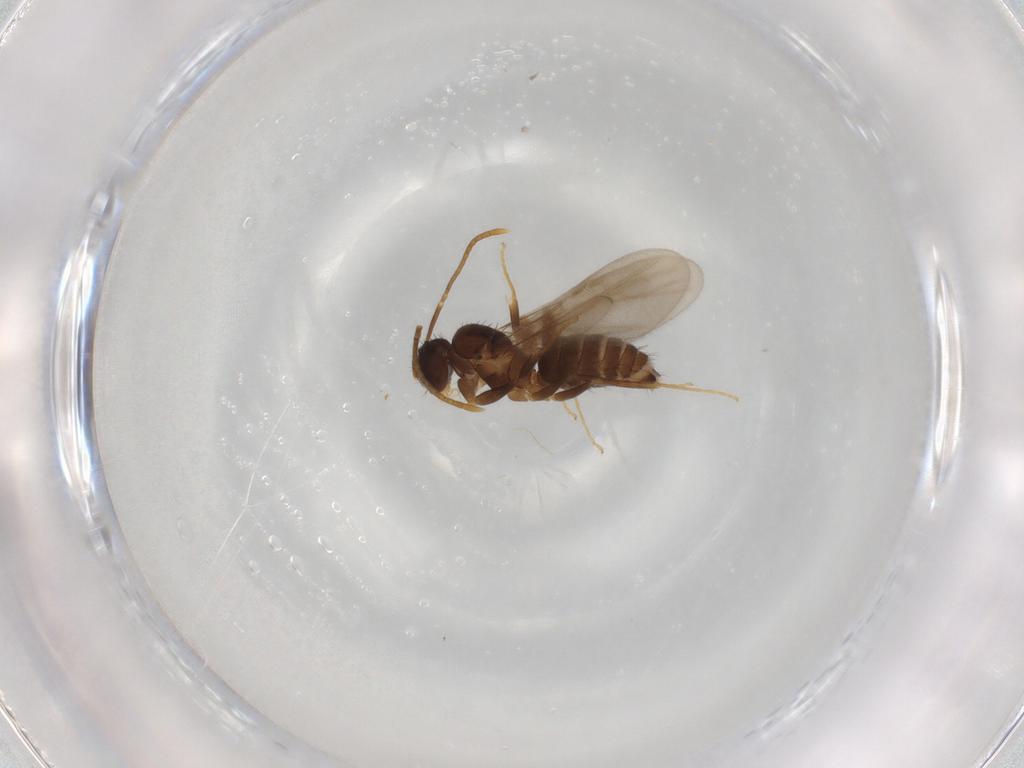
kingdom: Animalia
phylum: Arthropoda
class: Insecta
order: Hymenoptera
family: Formicidae
